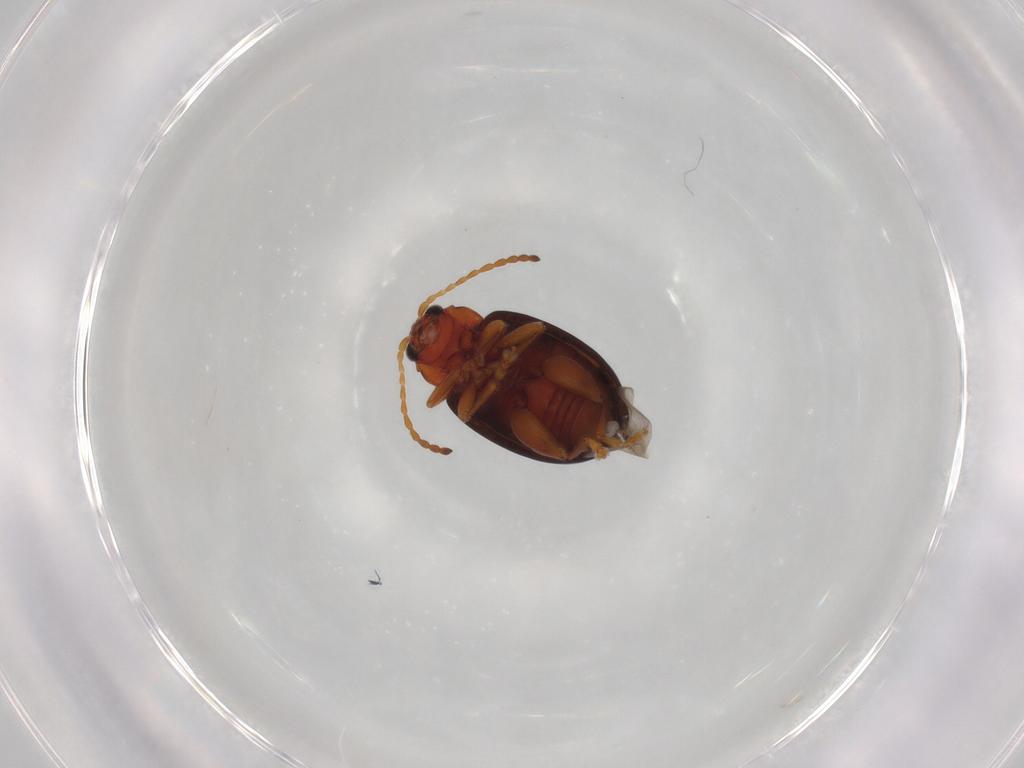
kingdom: Animalia
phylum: Arthropoda
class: Insecta
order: Coleoptera
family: Chrysomelidae
